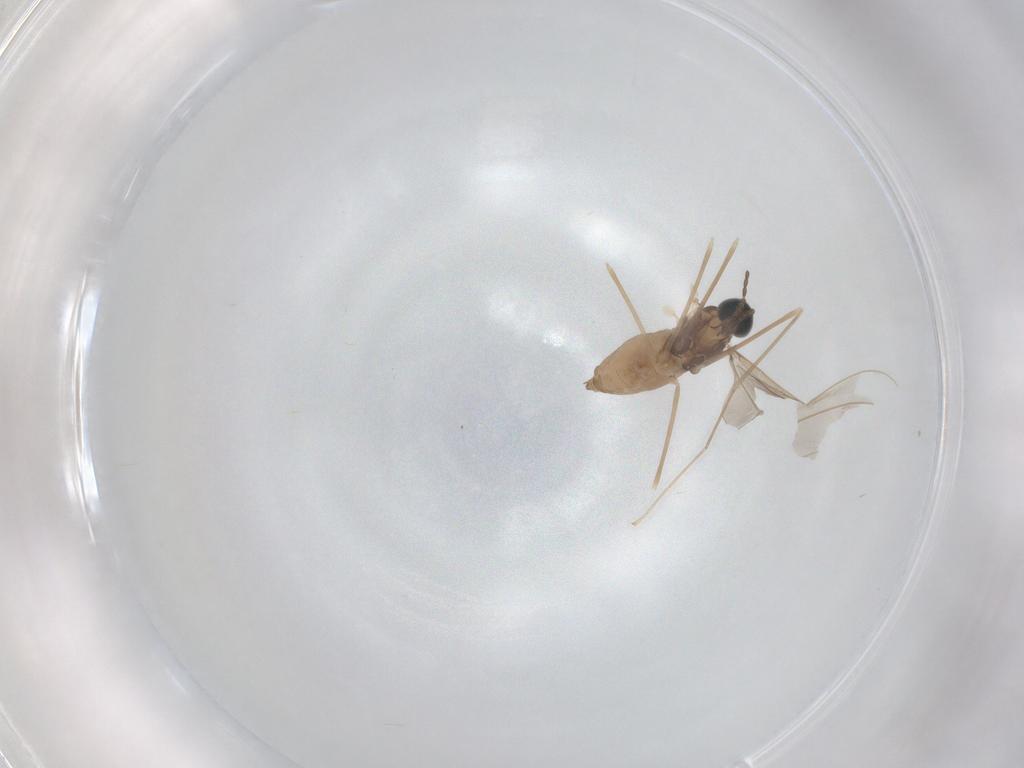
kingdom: Animalia
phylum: Arthropoda
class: Insecta
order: Diptera
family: Cecidomyiidae
